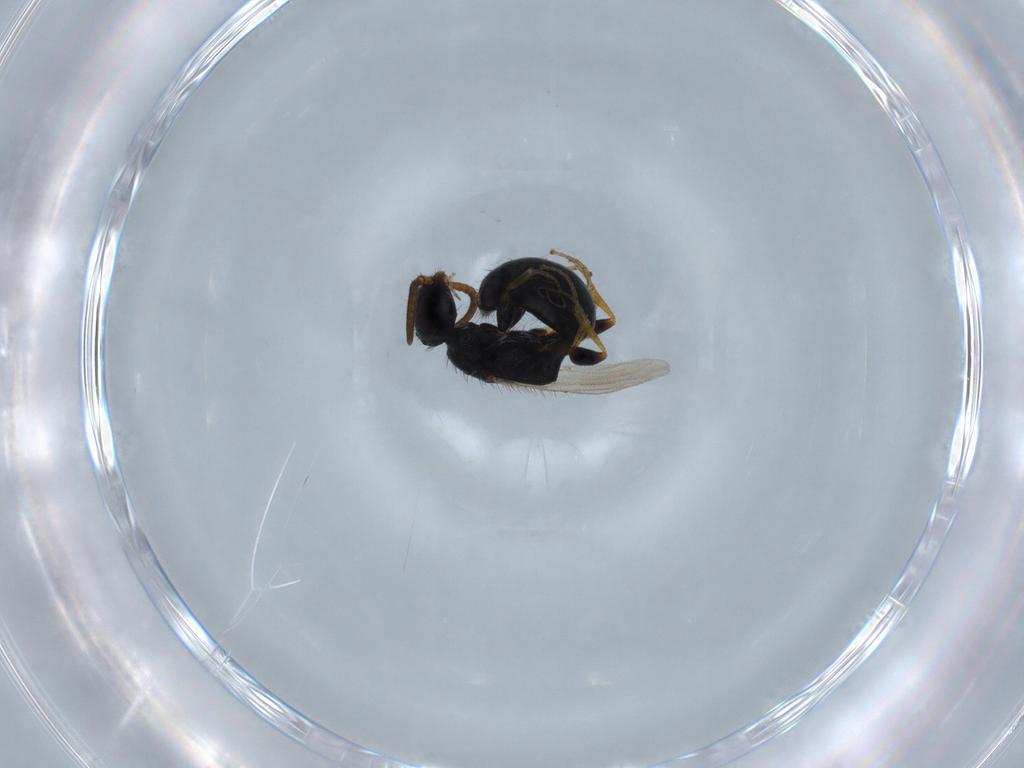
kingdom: Animalia
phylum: Arthropoda
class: Insecta
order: Hymenoptera
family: Bethylidae
